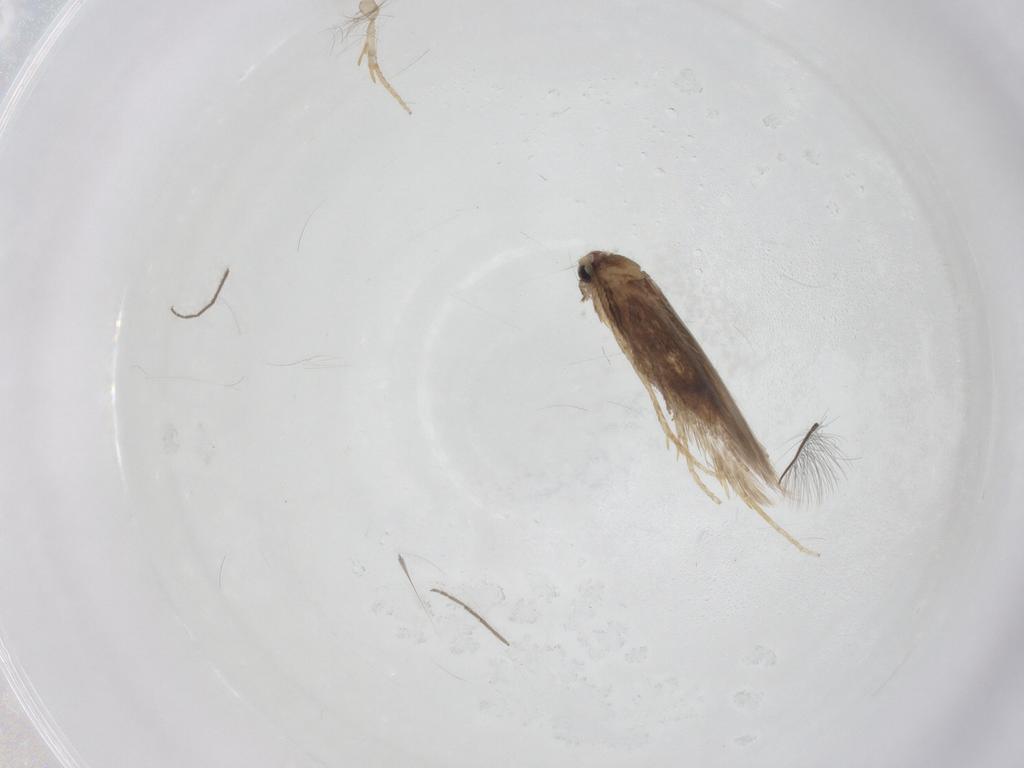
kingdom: Animalia
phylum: Arthropoda
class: Insecta
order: Lepidoptera
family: Nepticulidae
